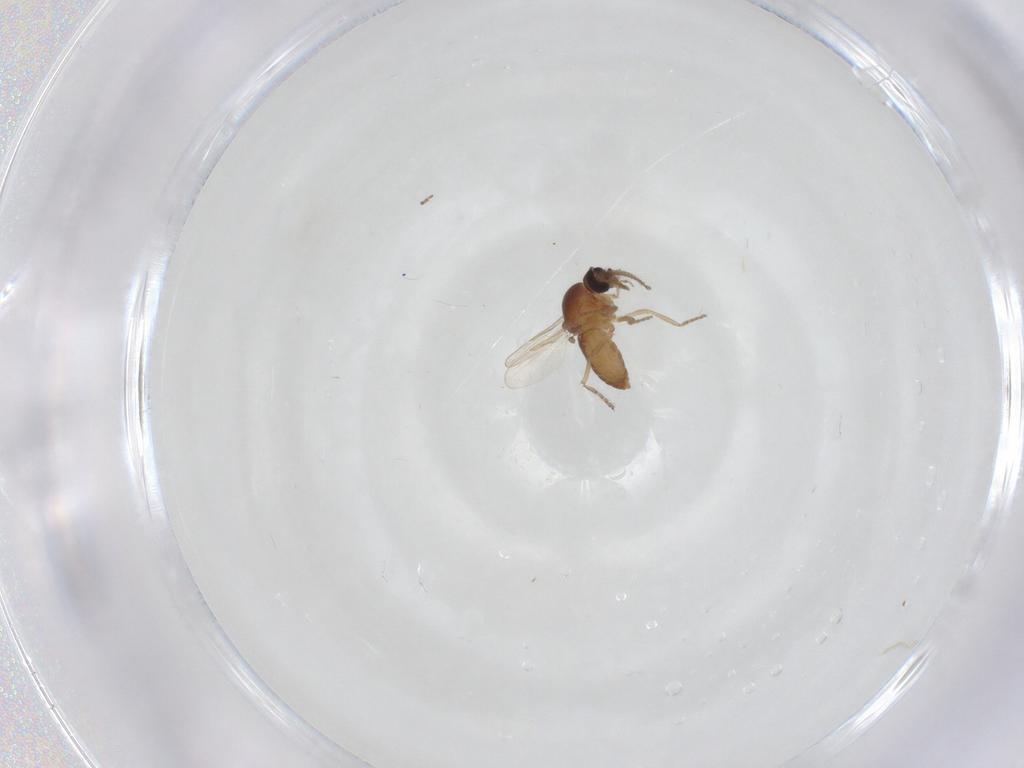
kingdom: Animalia
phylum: Arthropoda
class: Insecta
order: Diptera
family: Ceratopogonidae
